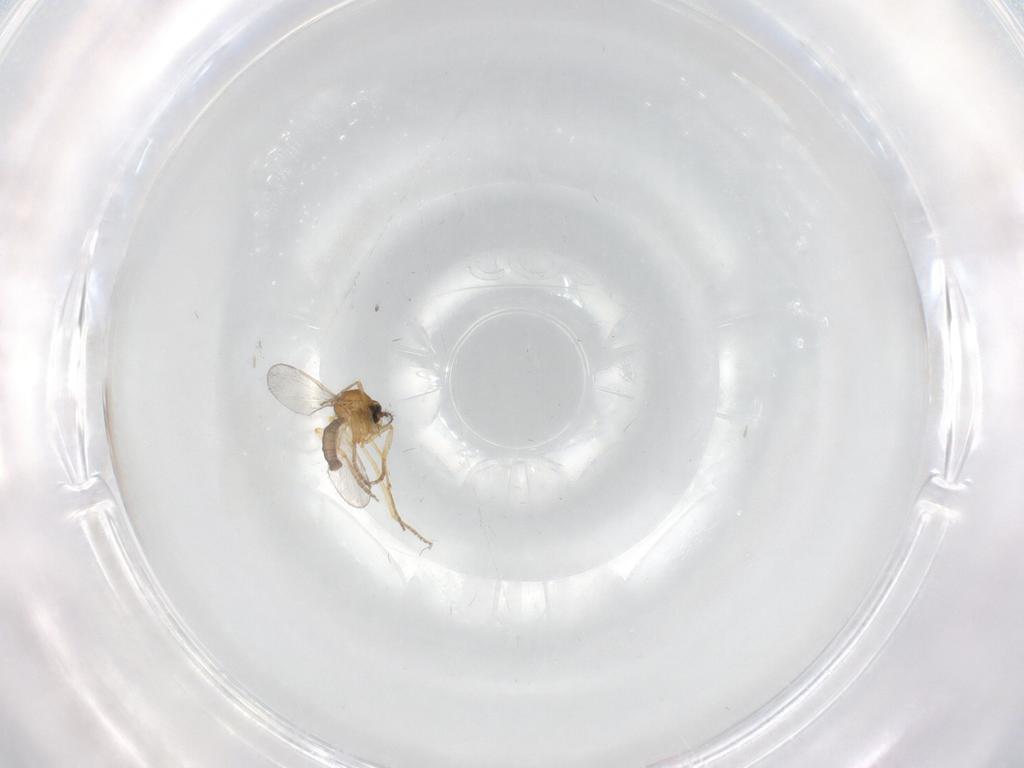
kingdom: Animalia
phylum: Arthropoda
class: Insecta
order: Diptera
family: Ceratopogonidae
